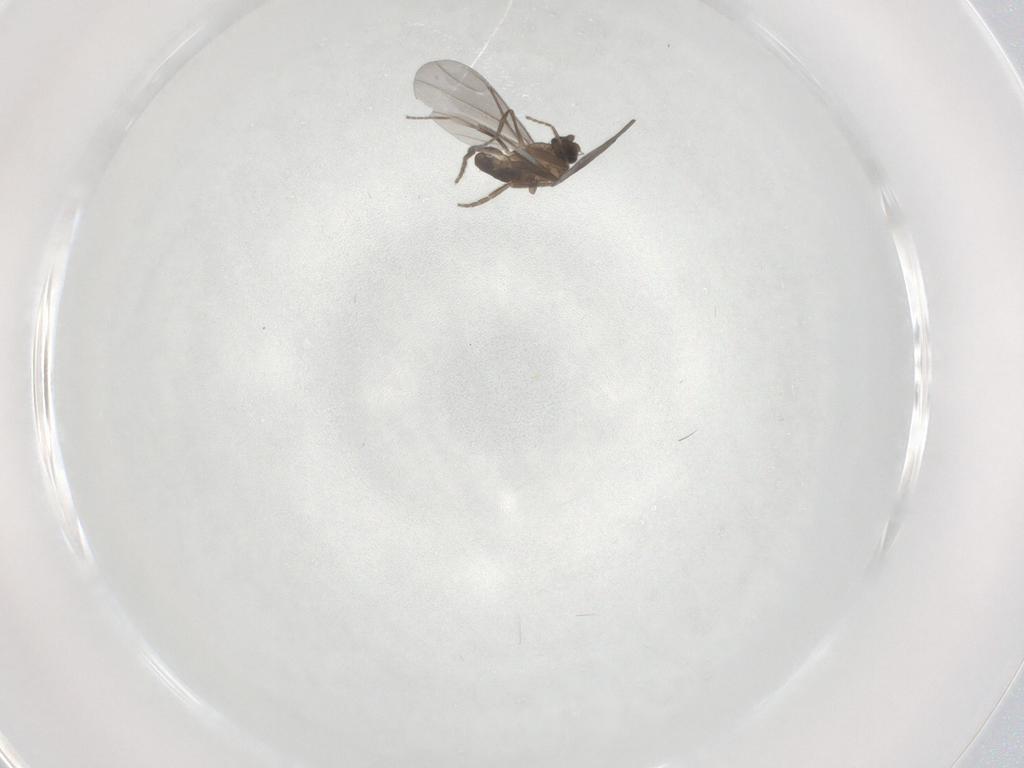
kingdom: Animalia
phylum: Arthropoda
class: Insecta
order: Diptera
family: Phoridae
